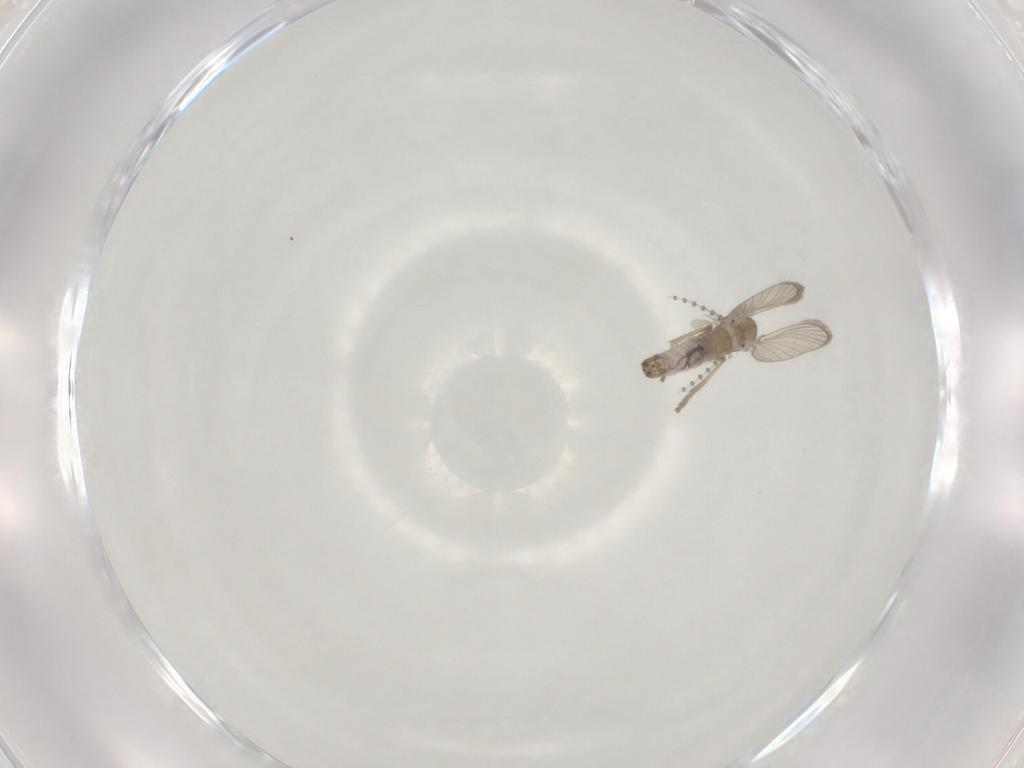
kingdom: Animalia
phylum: Arthropoda
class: Insecta
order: Diptera
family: Psychodidae
